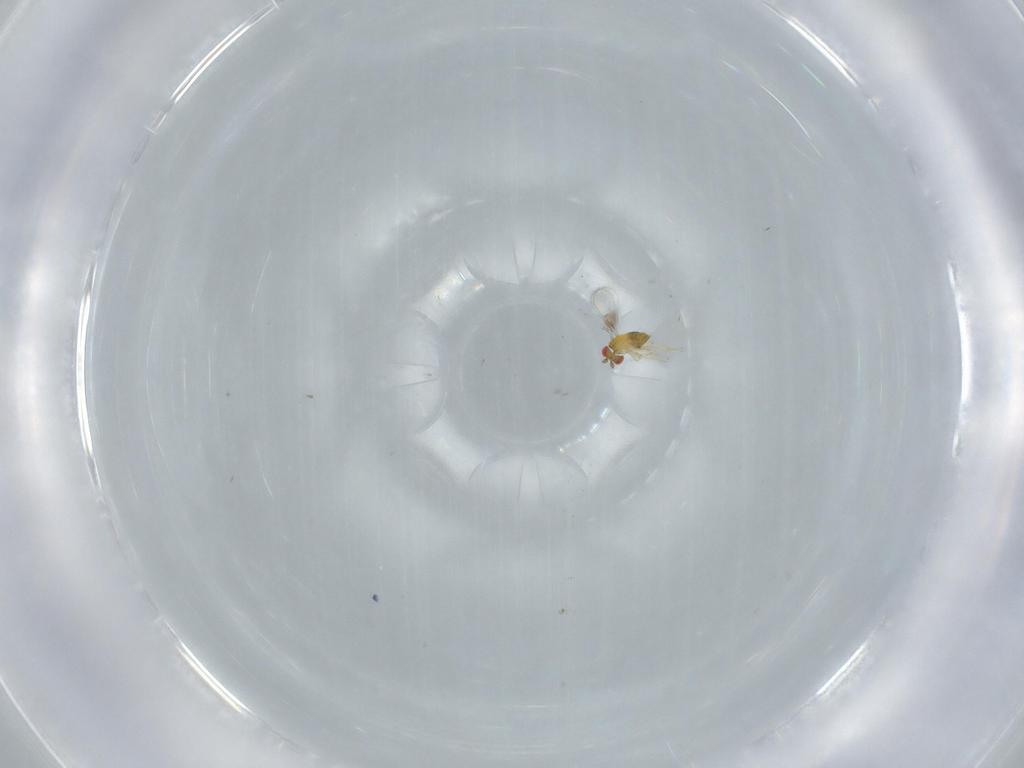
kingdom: Animalia
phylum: Arthropoda
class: Insecta
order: Hymenoptera
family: Trichogrammatidae
